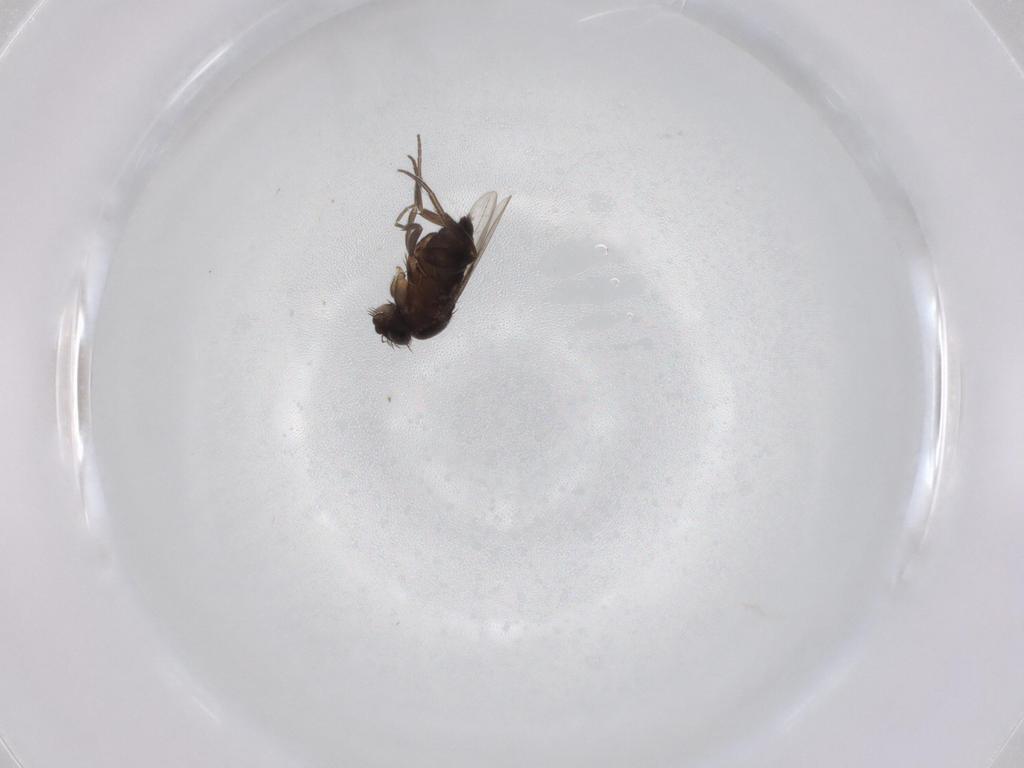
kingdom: Animalia
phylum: Arthropoda
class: Insecta
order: Diptera
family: Phoridae
